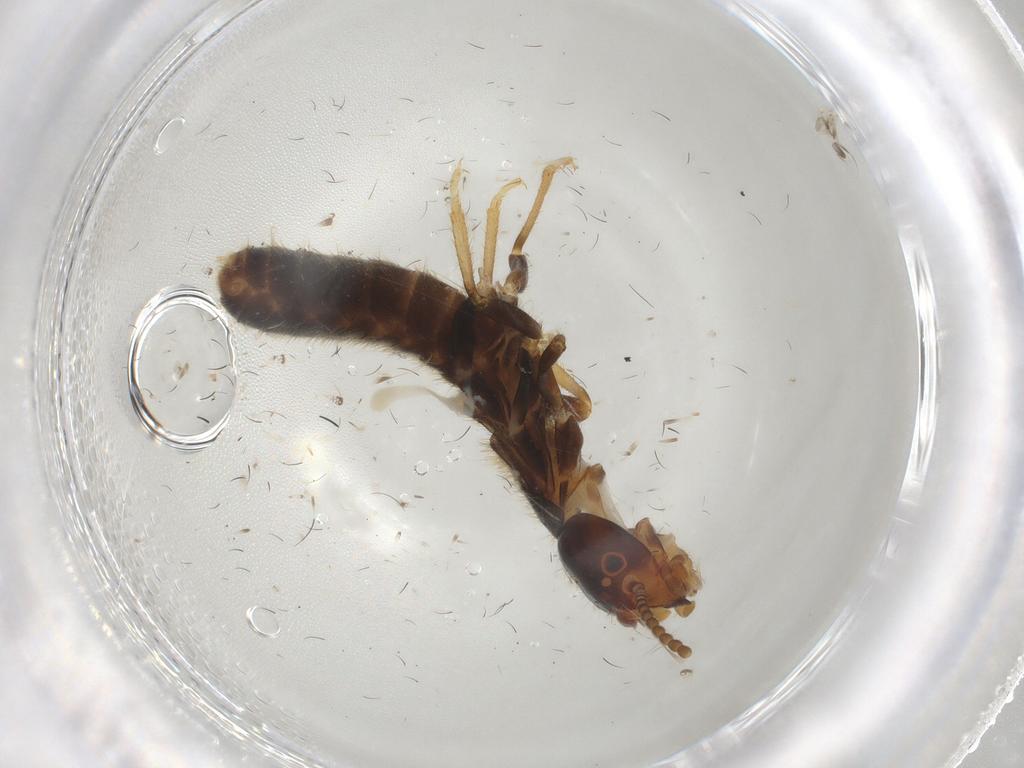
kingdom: Animalia
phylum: Arthropoda
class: Insecta
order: Blattodea
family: Rhinotermitidae
